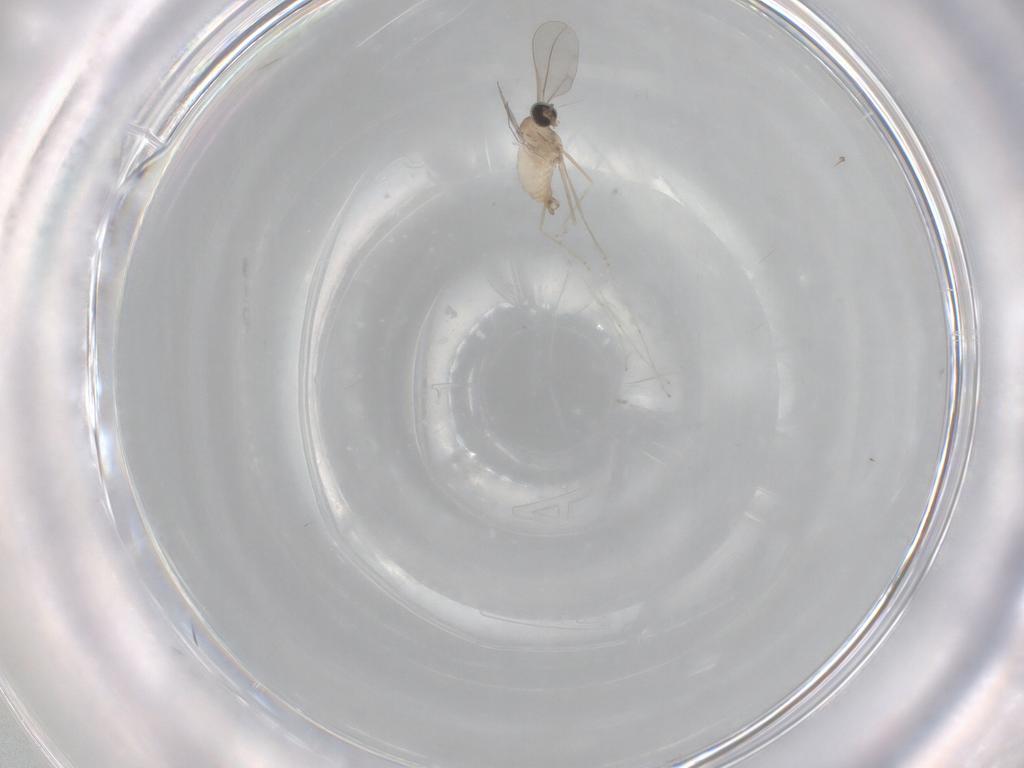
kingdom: Animalia
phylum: Arthropoda
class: Insecta
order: Diptera
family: Cecidomyiidae
